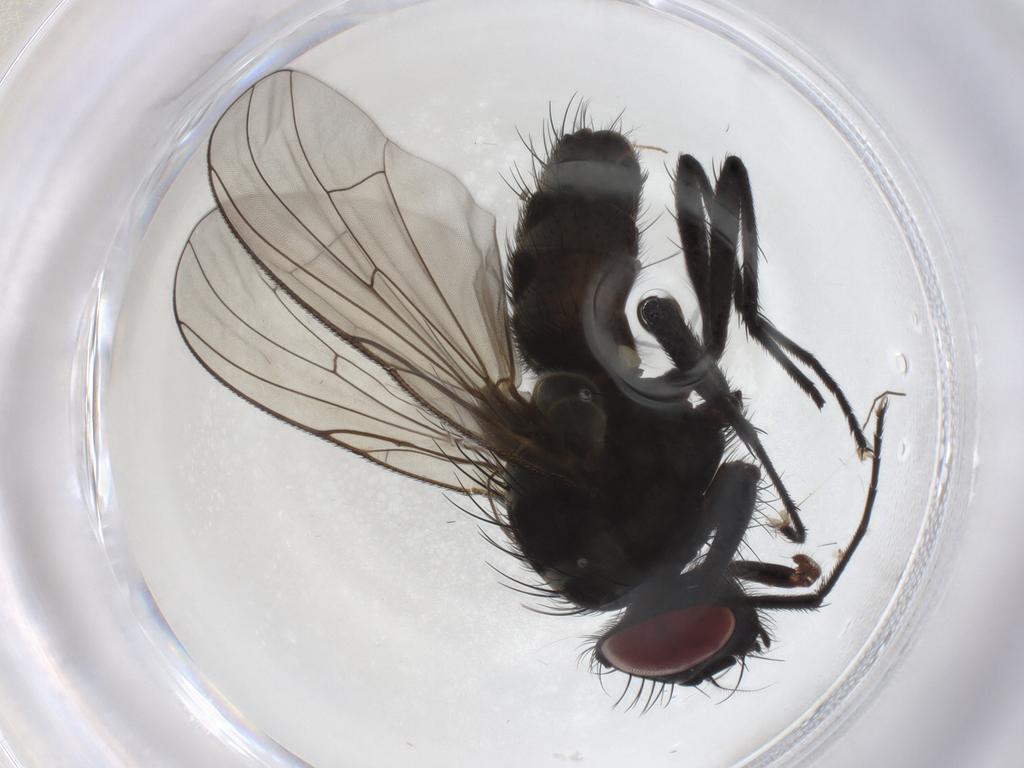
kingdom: Animalia
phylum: Arthropoda
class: Insecta
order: Diptera
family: Muscidae
